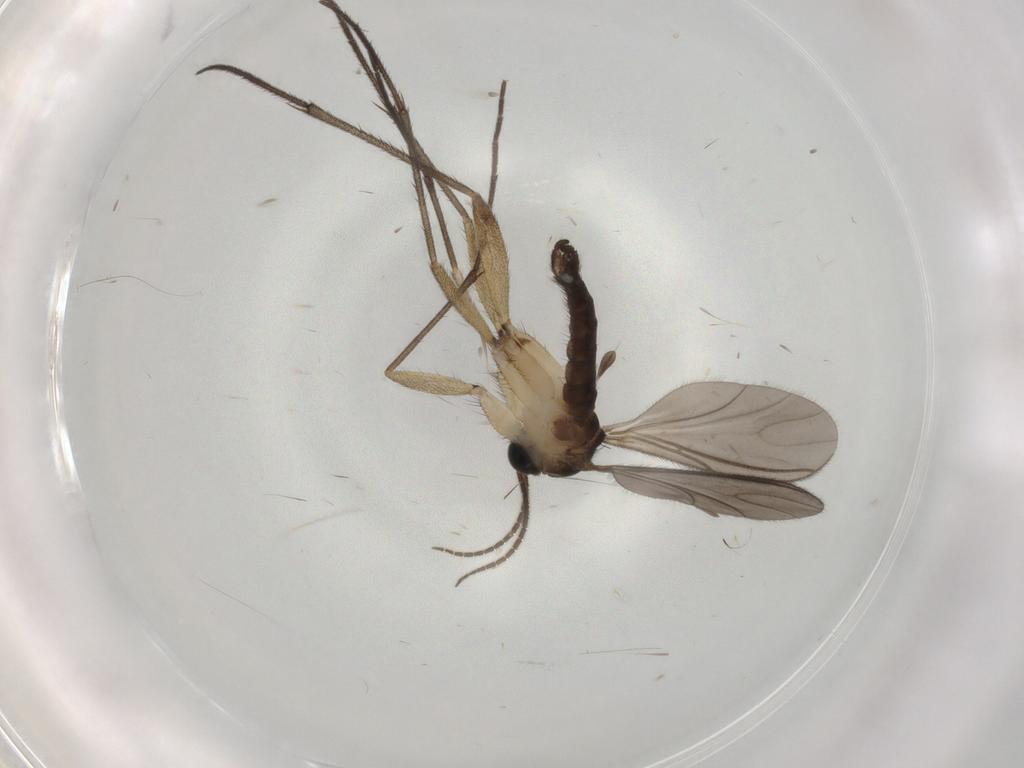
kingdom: Animalia
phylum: Arthropoda
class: Insecta
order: Diptera
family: Sciaridae
